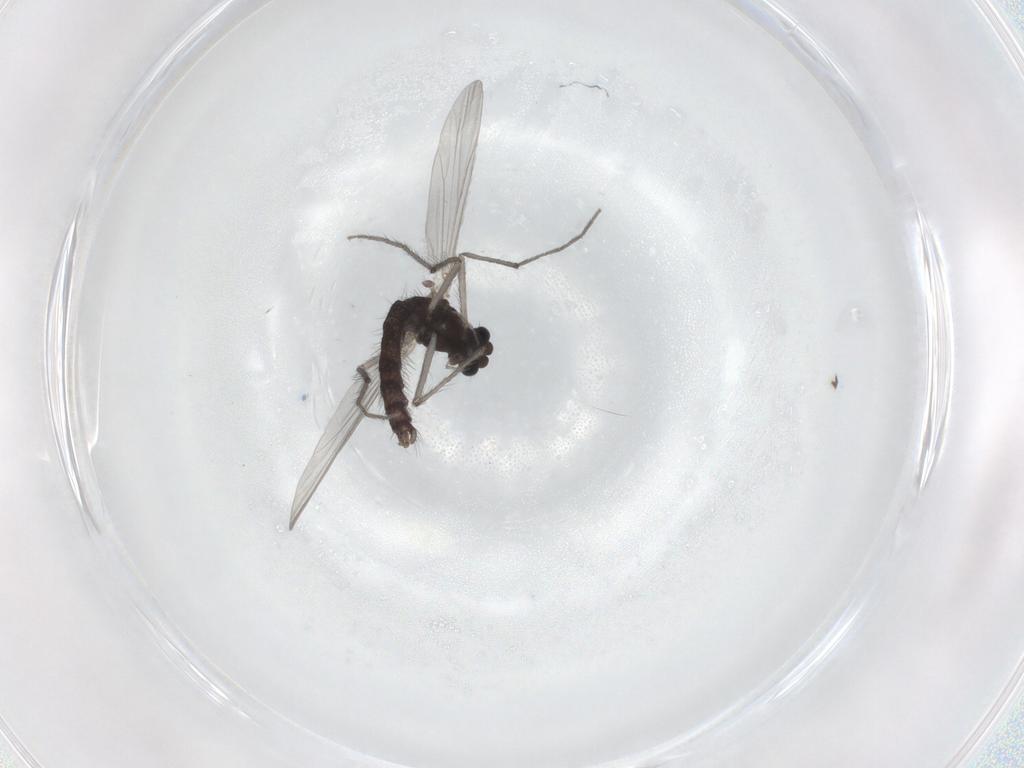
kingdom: Animalia
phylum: Arthropoda
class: Insecta
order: Diptera
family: Chironomidae
